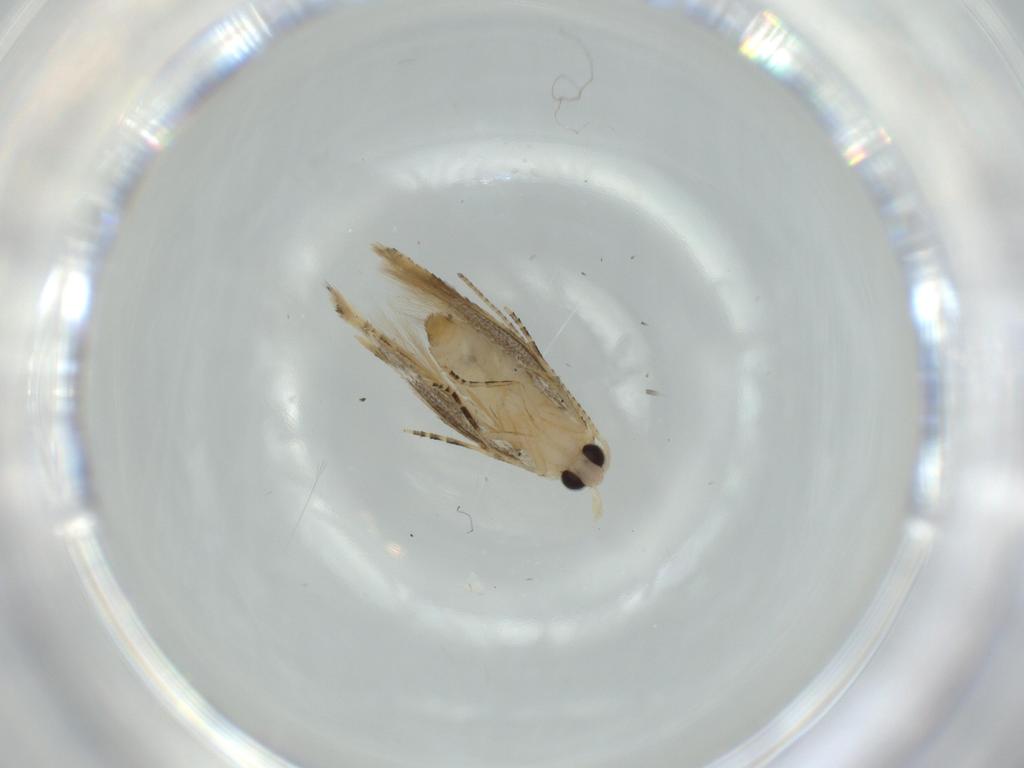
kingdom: Animalia
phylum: Arthropoda
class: Insecta
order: Lepidoptera
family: Bucculatricidae
